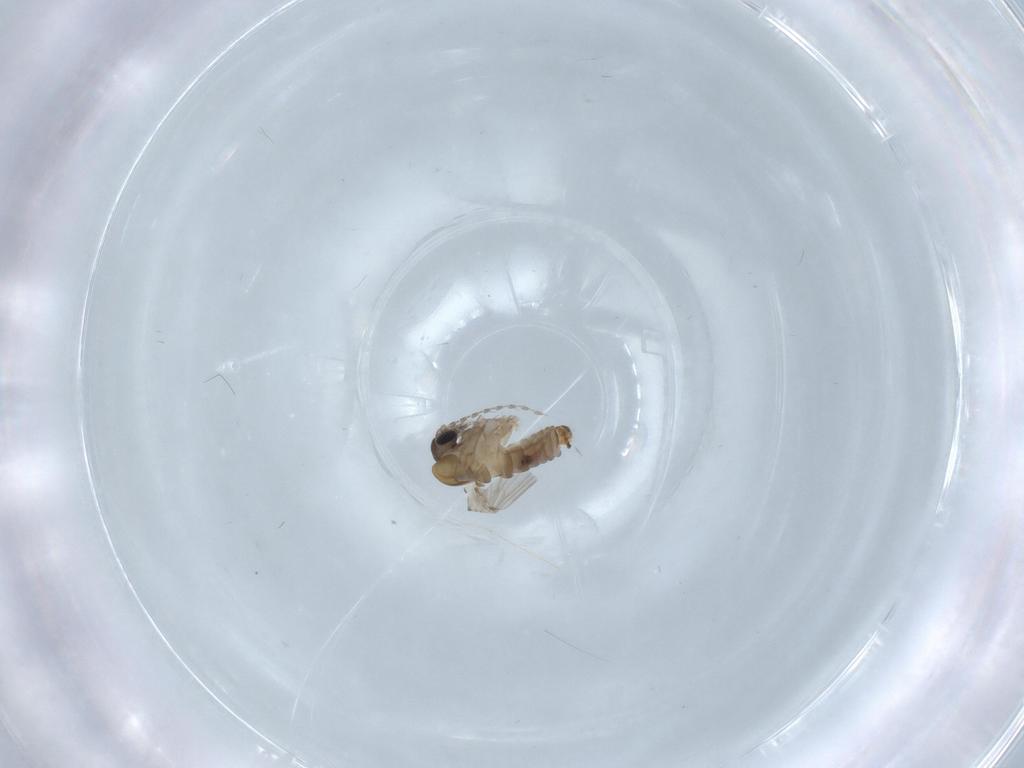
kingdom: Animalia
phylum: Arthropoda
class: Insecta
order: Diptera
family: Psychodidae
